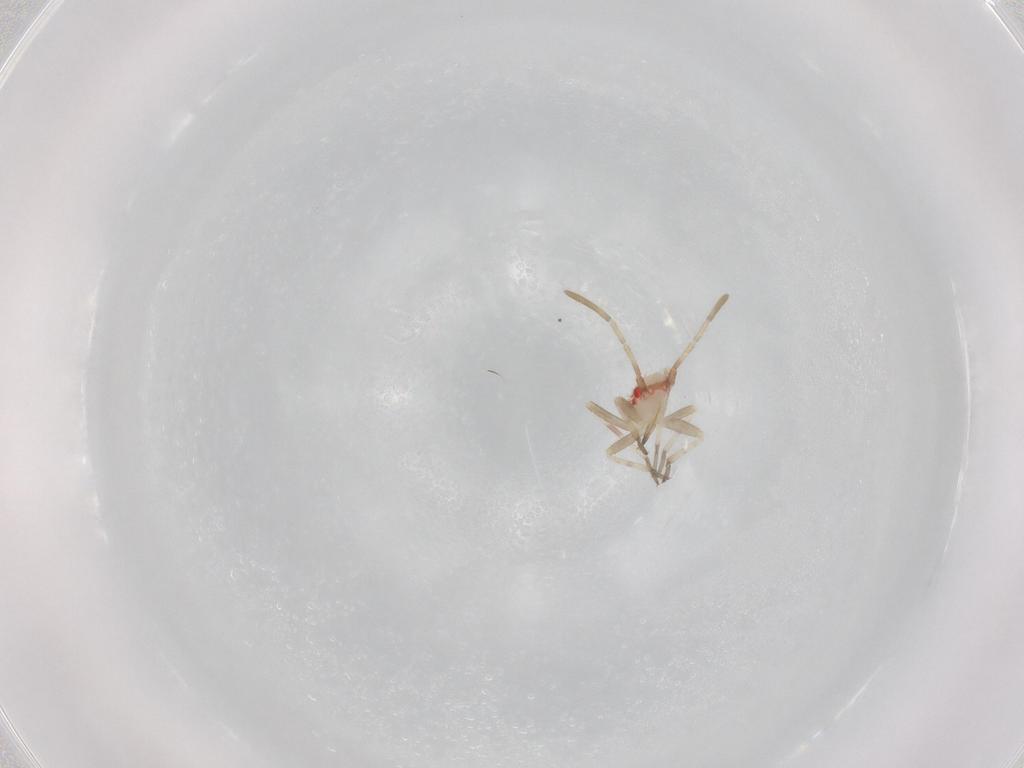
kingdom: Animalia
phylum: Arthropoda
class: Insecta
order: Hemiptera
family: Miridae
